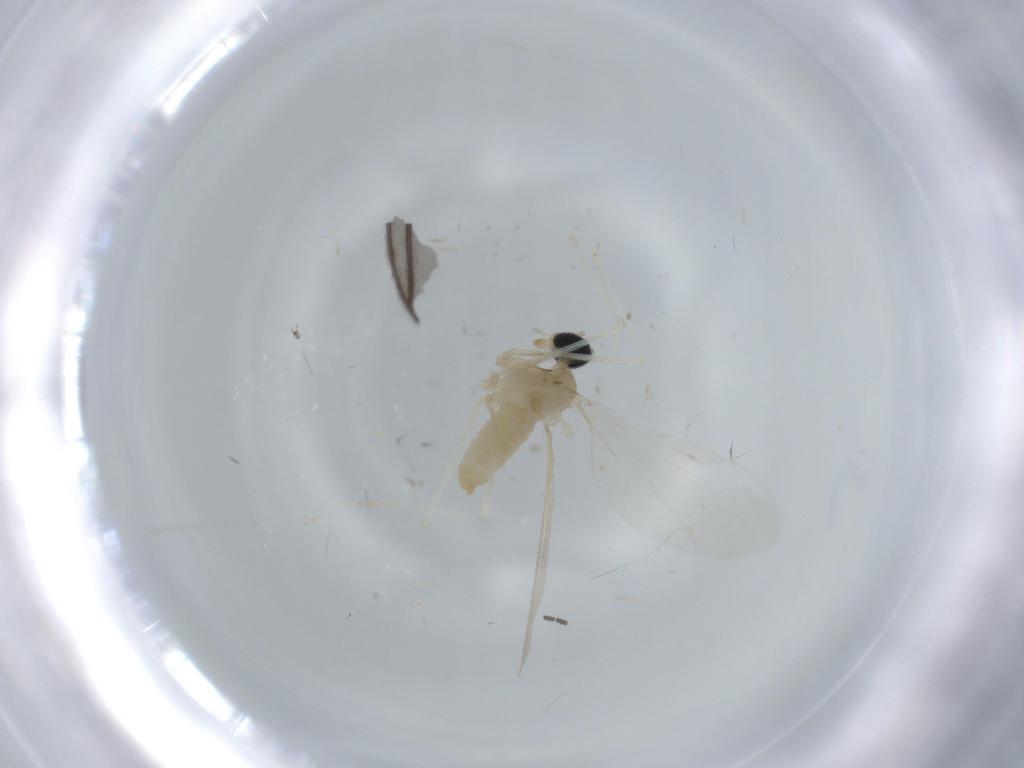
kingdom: Animalia
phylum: Arthropoda
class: Insecta
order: Diptera
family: Cecidomyiidae
